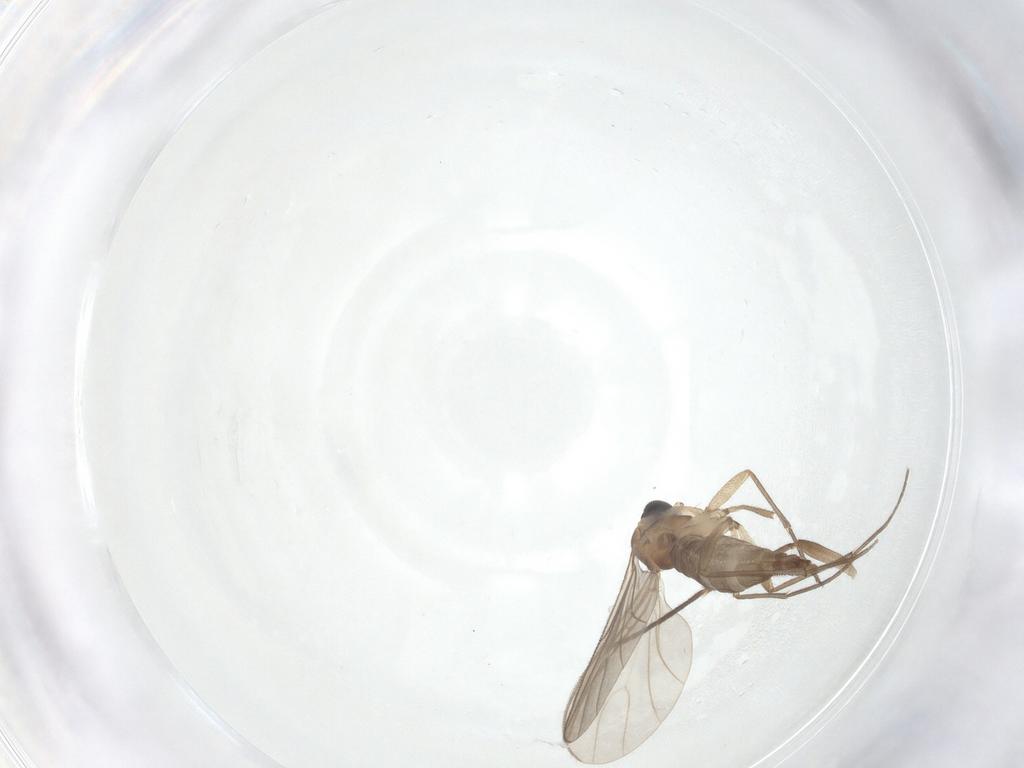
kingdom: Animalia
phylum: Arthropoda
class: Insecta
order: Diptera
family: Sciaridae
